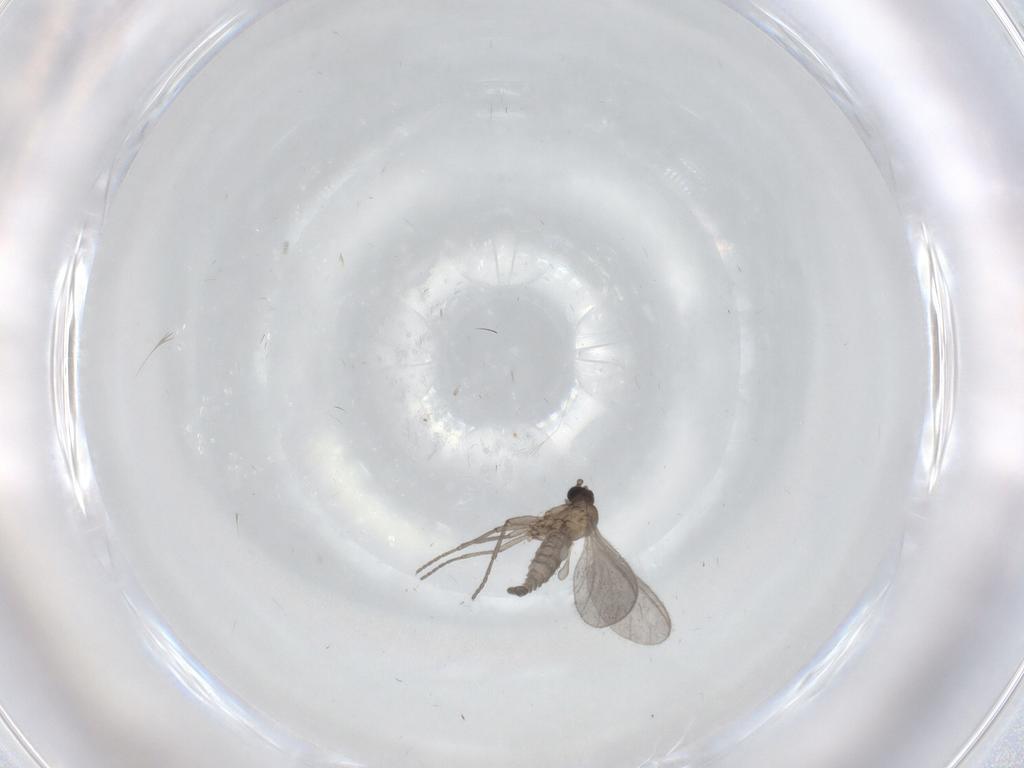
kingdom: Animalia
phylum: Arthropoda
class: Insecta
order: Diptera
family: Sciaridae
